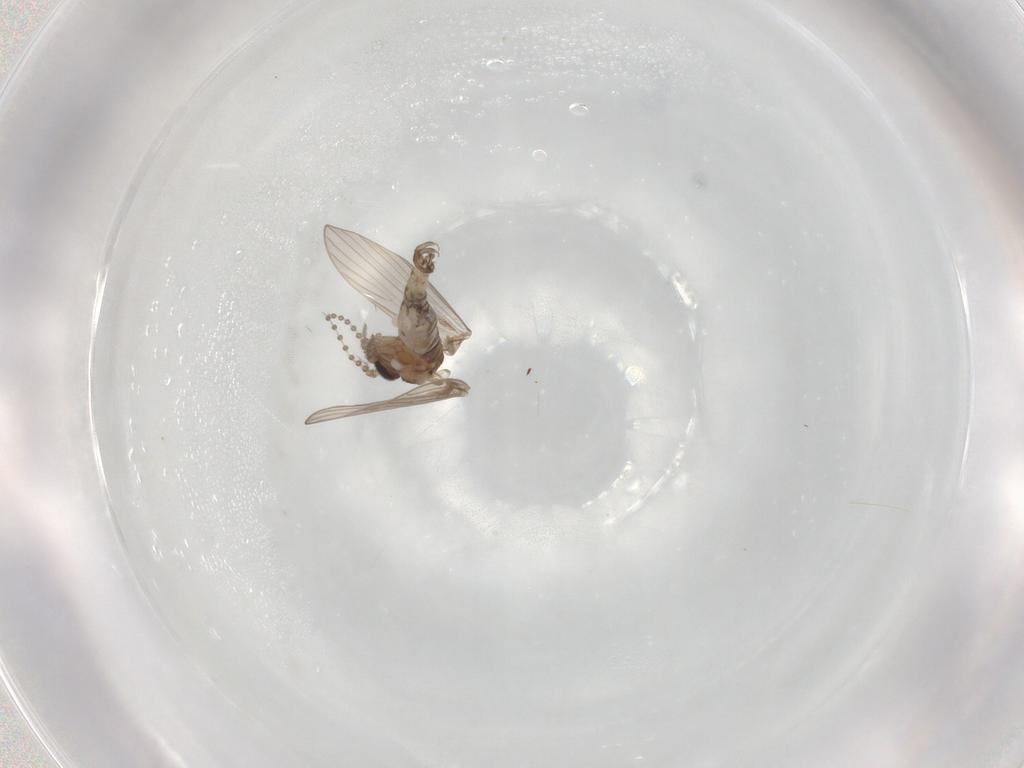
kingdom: Animalia
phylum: Arthropoda
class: Insecta
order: Diptera
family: Psychodidae
